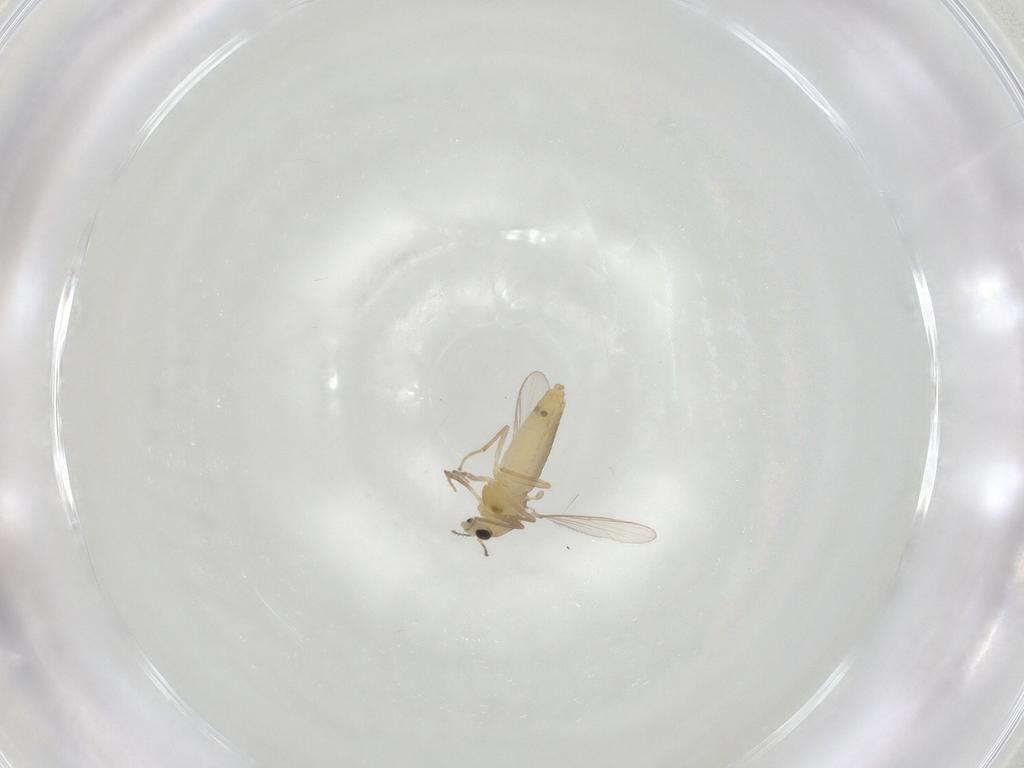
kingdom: Animalia
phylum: Arthropoda
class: Insecta
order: Diptera
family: Chironomidae
